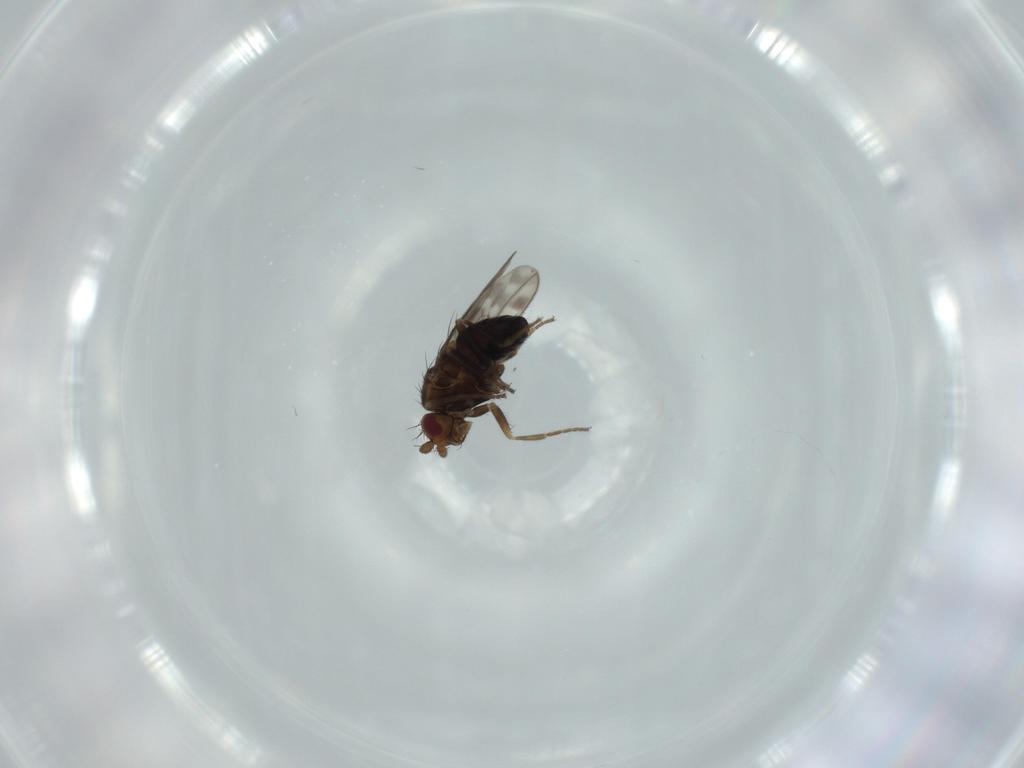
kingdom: Animalia
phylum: Arthropoda
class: Insecta
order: Diptera
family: Sphaeroceridae
